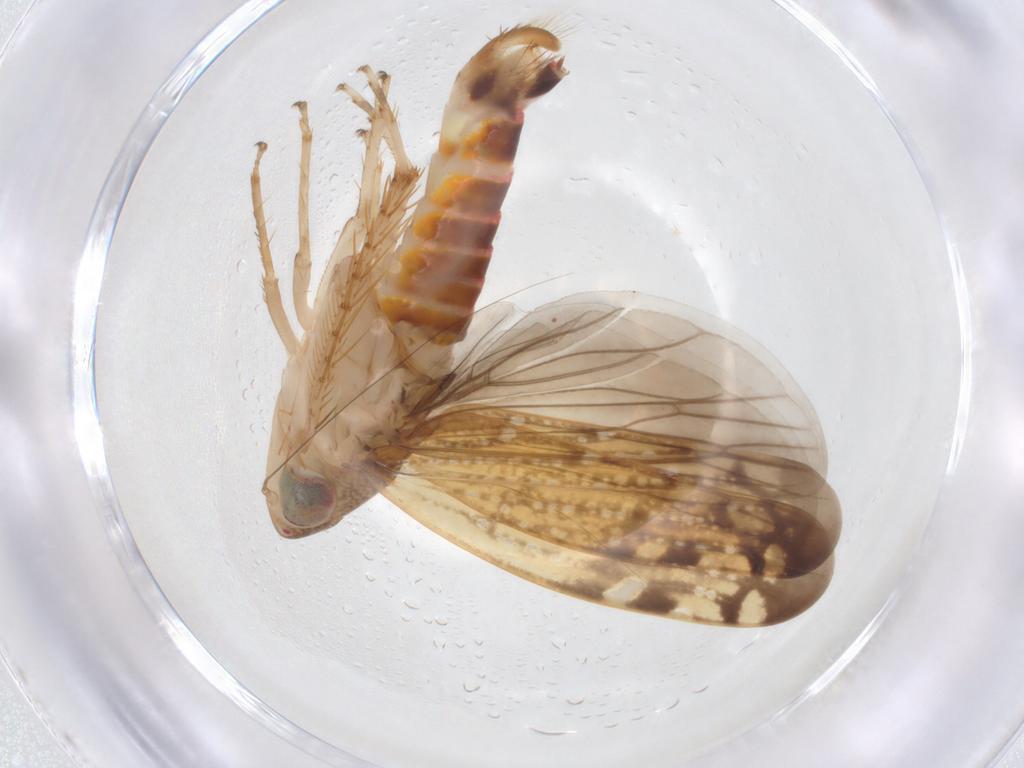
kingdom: Animalia
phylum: Arthropoda
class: Insecta
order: Hemiptera
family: Cicadellidae
